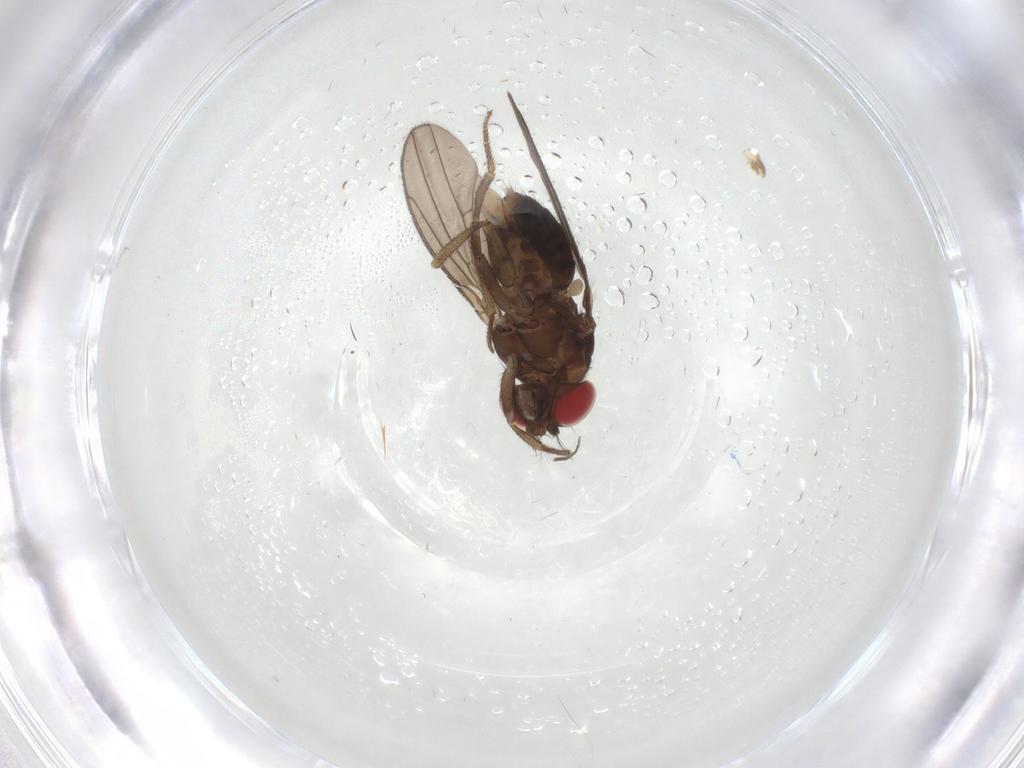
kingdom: Animalia
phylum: Arthropoda
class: Insecta
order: Diptera
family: Drosophilidae
